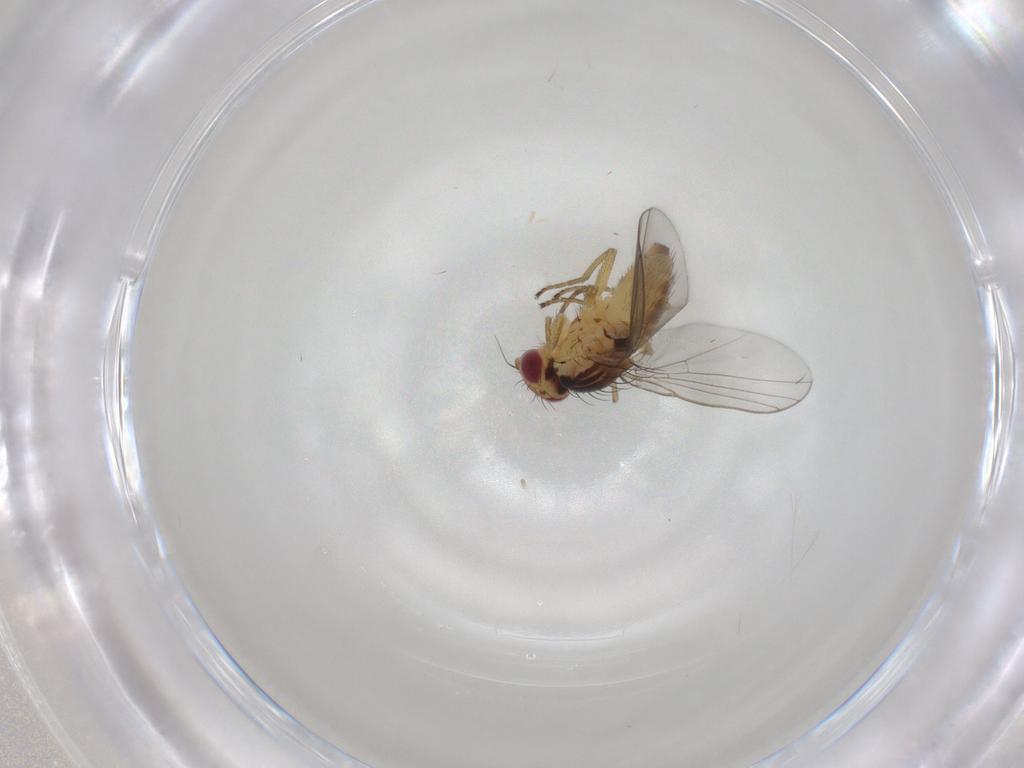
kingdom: Animalia
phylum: Arthropoda
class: Insecta
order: Diptera
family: Agromyzidae
